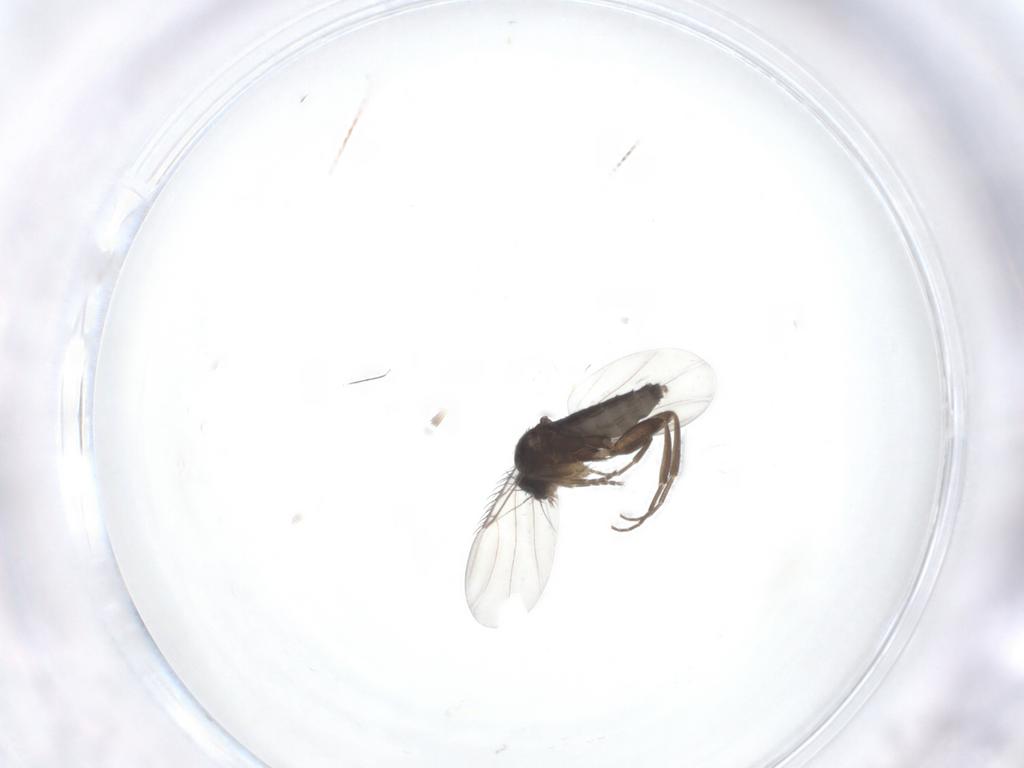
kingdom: Animalia
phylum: Arthropoda
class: Insecta
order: Diptera
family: Phoridae
